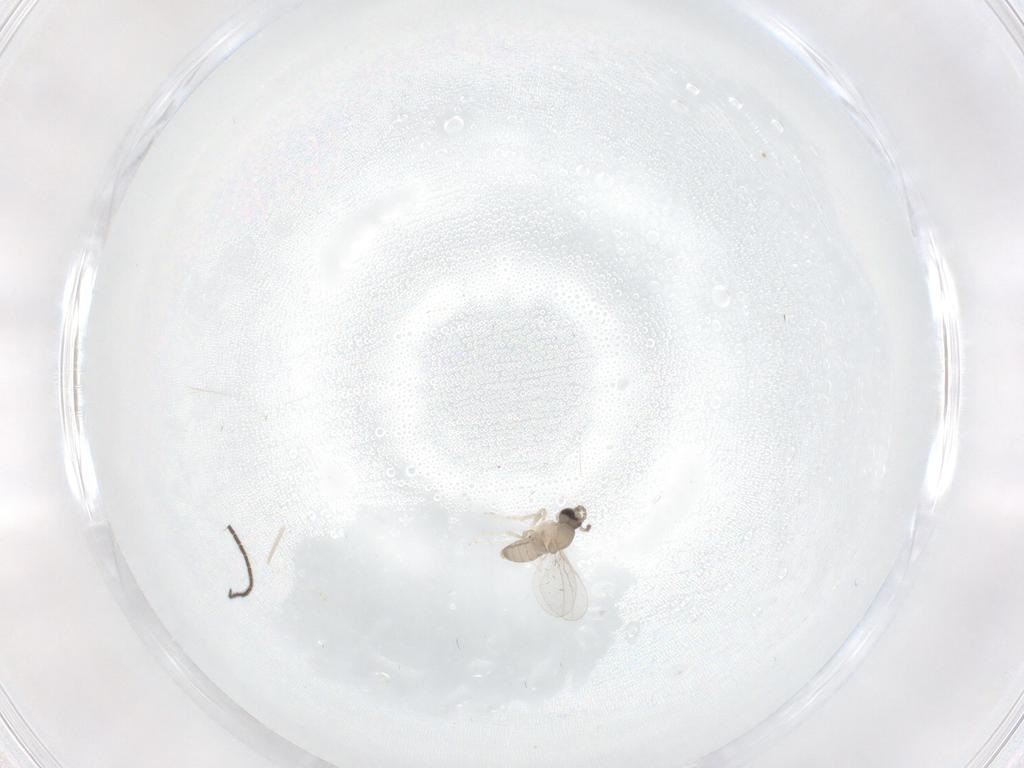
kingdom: Animalia
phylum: Arthropoda
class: Insecta
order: Diptera
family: Cecidomyiidae
